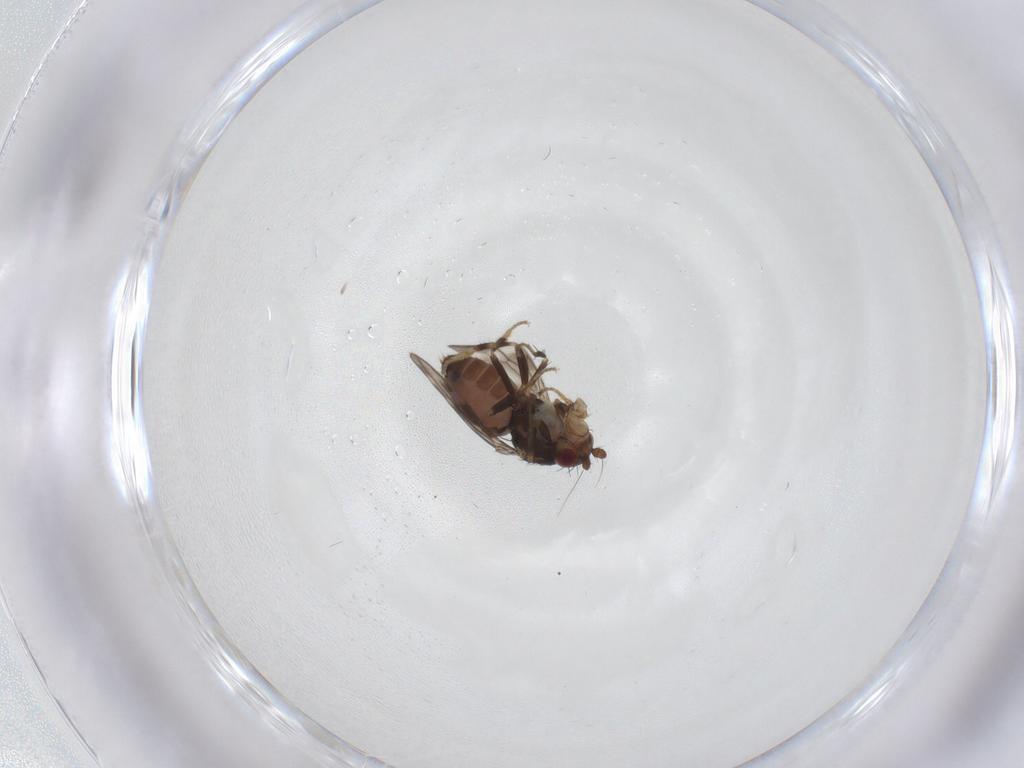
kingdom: Animalia
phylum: Arthropoda
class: Insecta
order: Diptera
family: Sphaeroceridae
